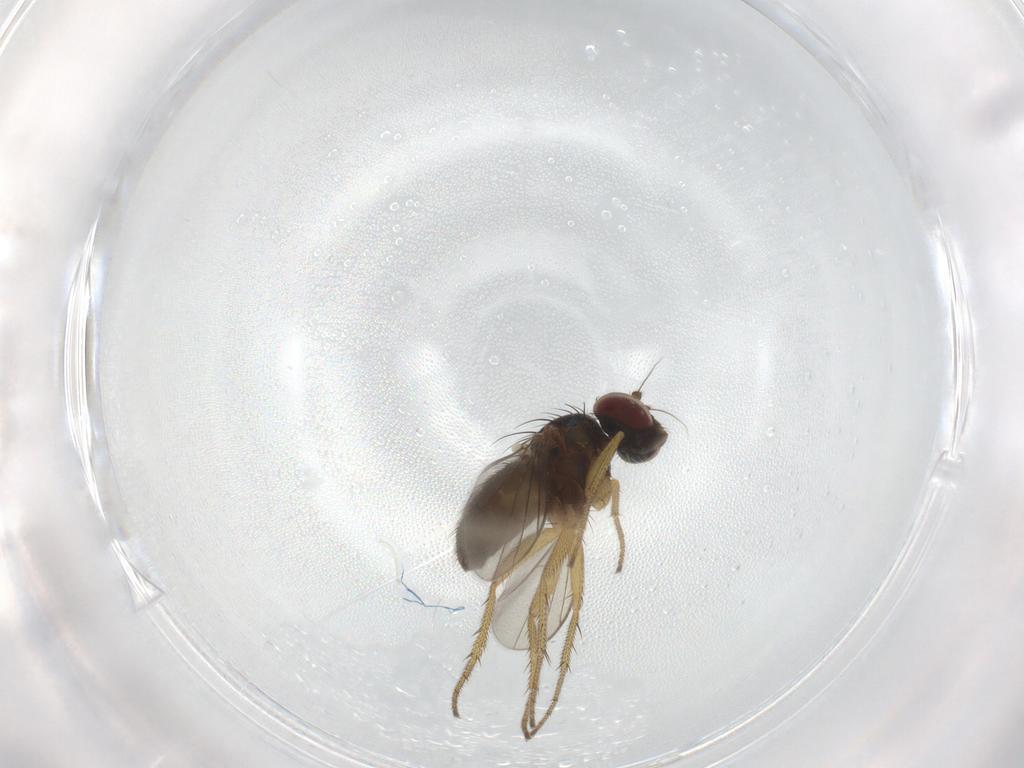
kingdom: Animalia
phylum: Arthropoda
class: Insecta
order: Diptera
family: Dolichopodidae
